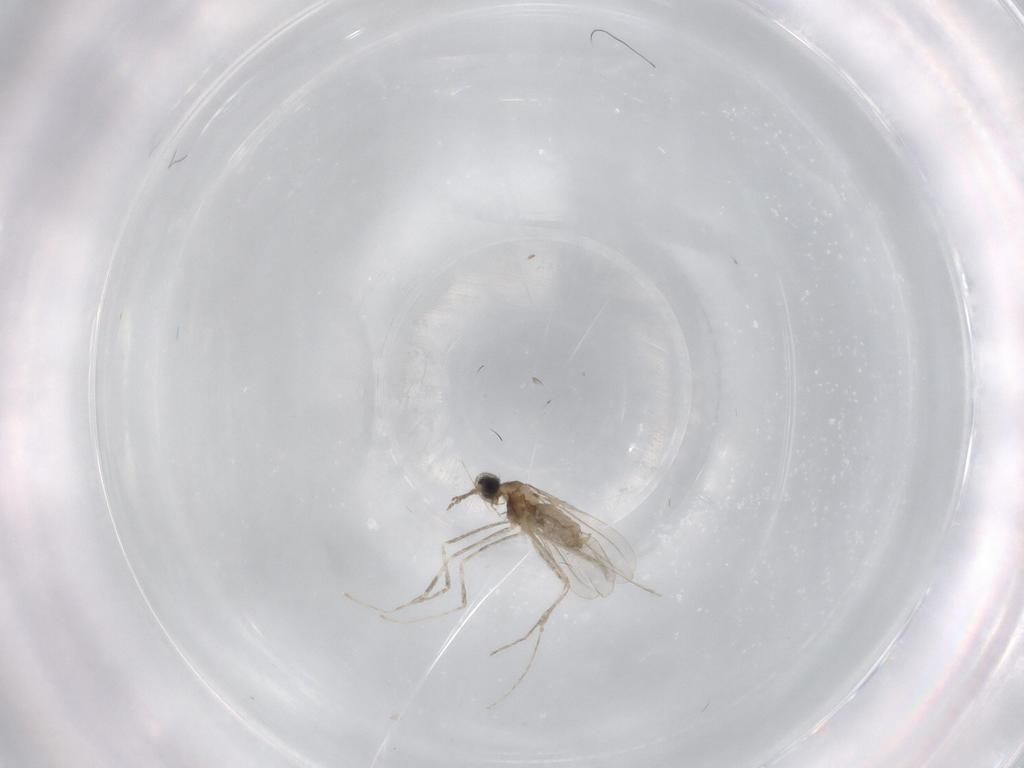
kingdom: Animalia
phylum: Arthropoda
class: Insecta
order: Diptera
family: Cecidomyiidae
